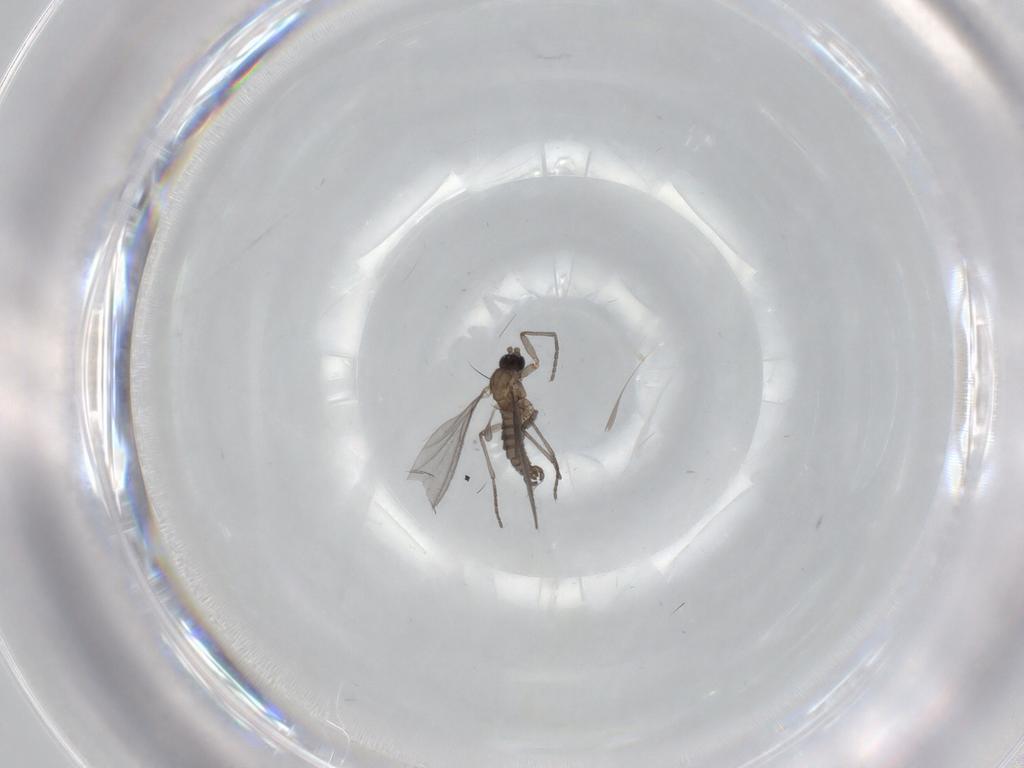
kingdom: Animalia
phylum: Arthropoda
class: Insecta
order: Diptera
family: Sciaridae
